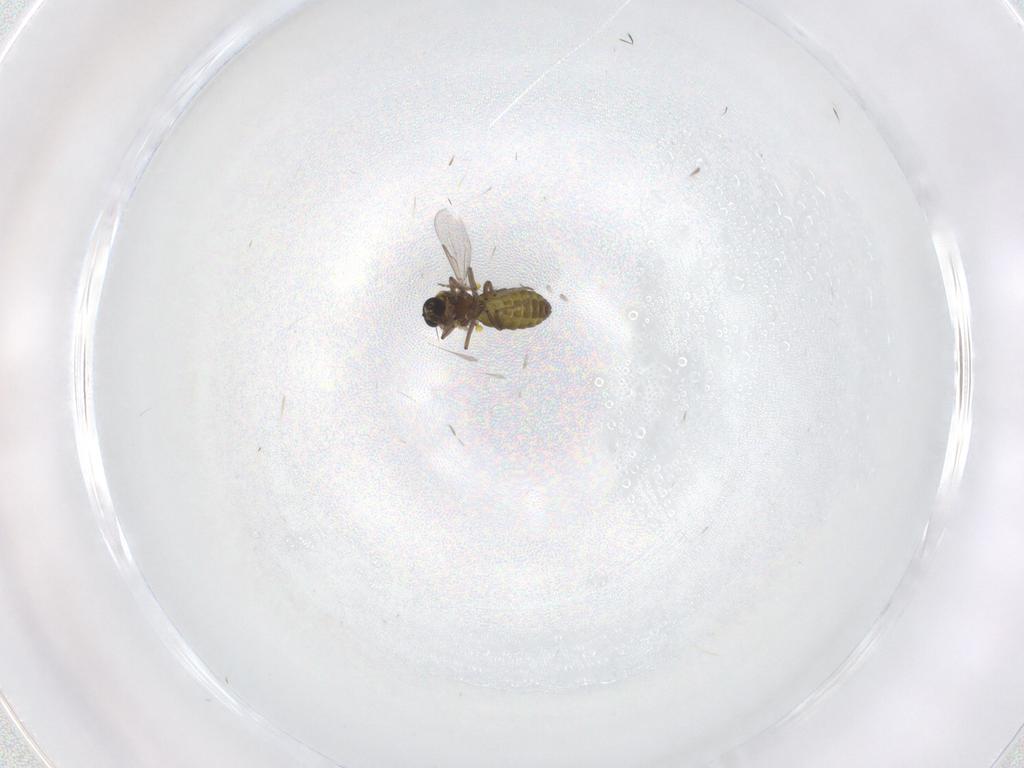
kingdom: Animalia
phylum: Arthropoda
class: Insecta
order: Diptera
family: Ceratopogonidae
